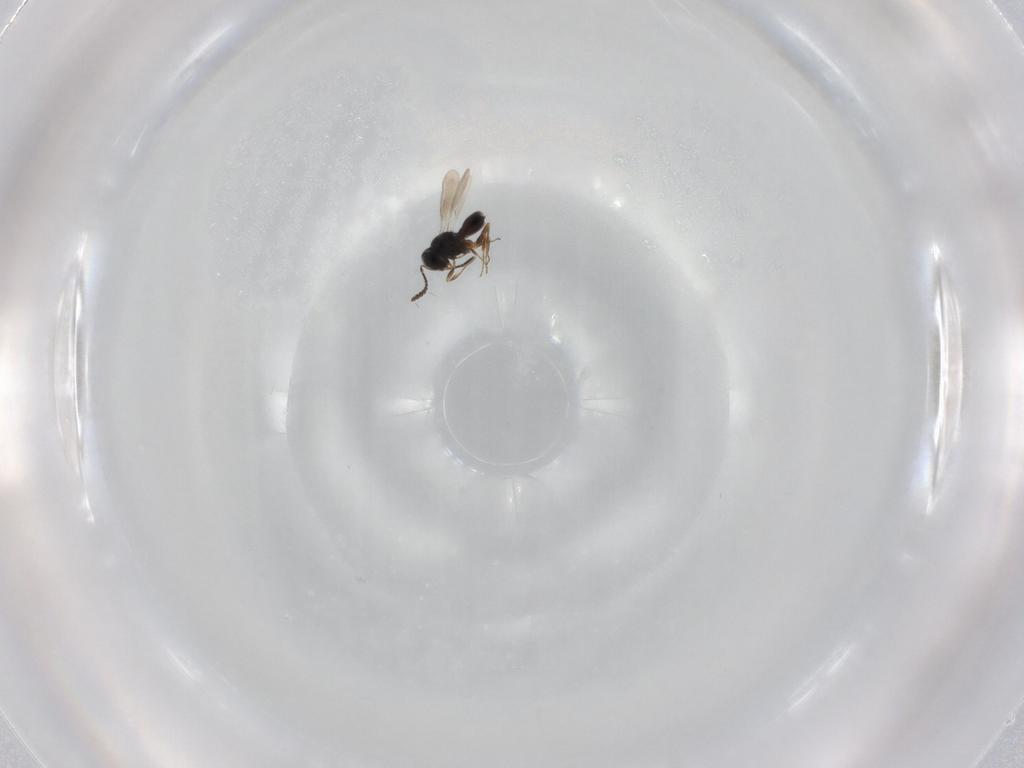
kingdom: Animalia
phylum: Arthropoda
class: Insecta
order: Hymenoptera
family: Scelionidae
